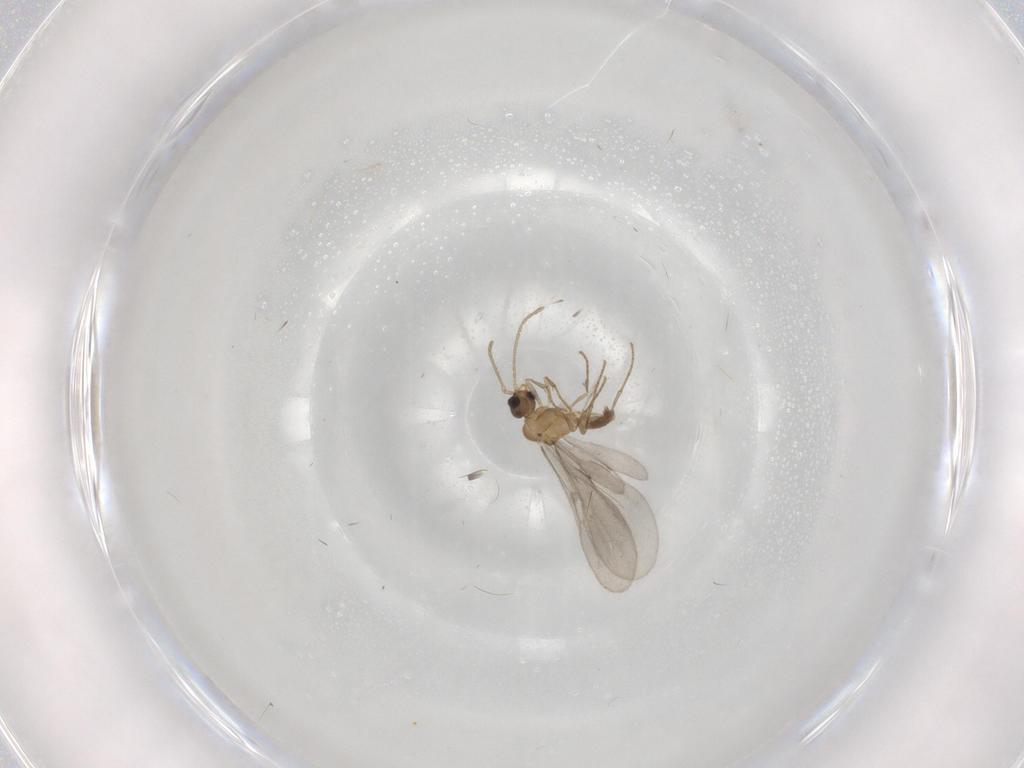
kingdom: Animalia
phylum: Arthropoda
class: Insecta
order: Hymenoptera
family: Formicidae
